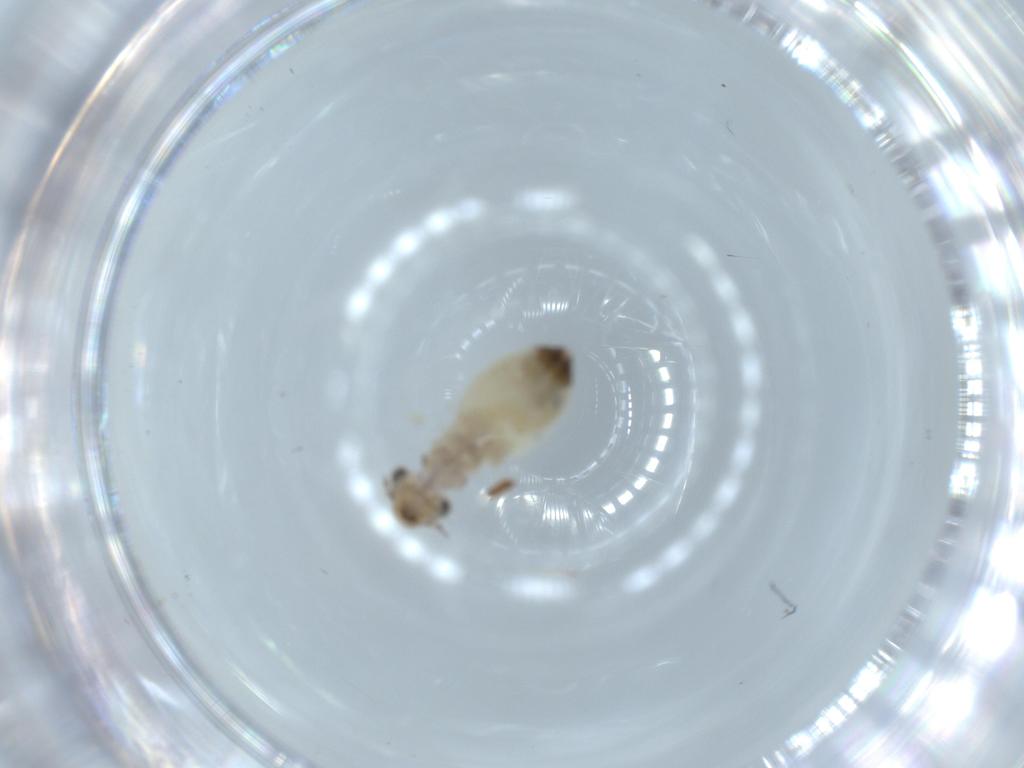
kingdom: Animalia
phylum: Arthropoda
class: Insecta
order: Psocodea
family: Lepidopsocidae
